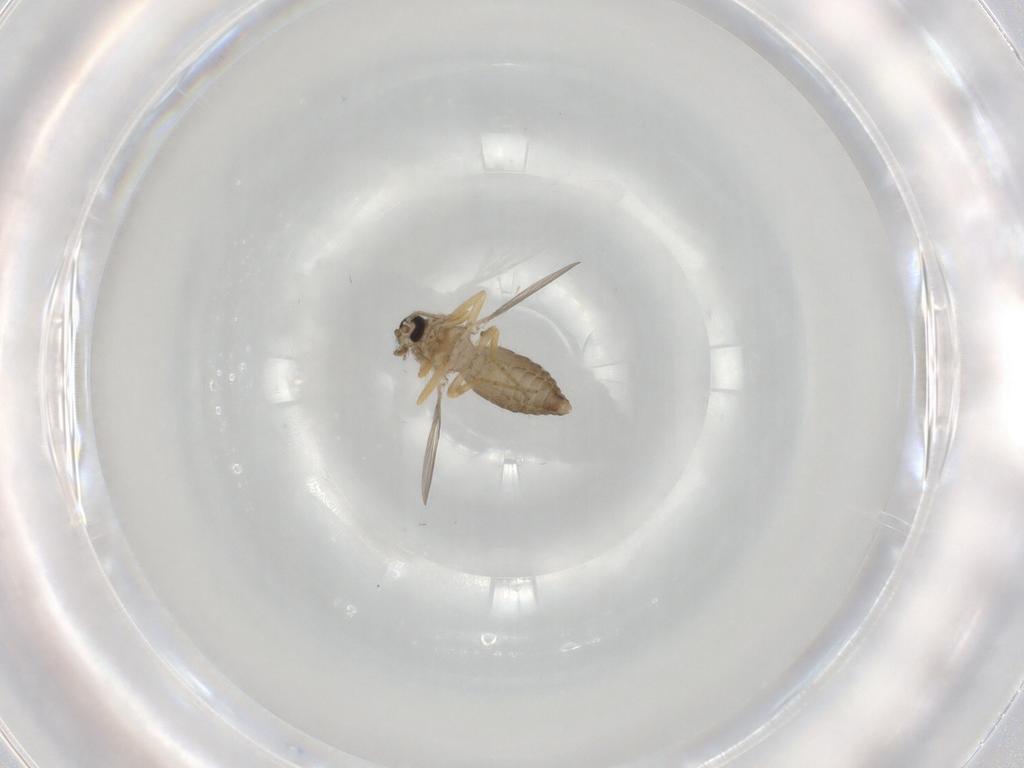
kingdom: Animalia
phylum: Arthropoda
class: Insecta
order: Diptera
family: Ceratopogonidae
